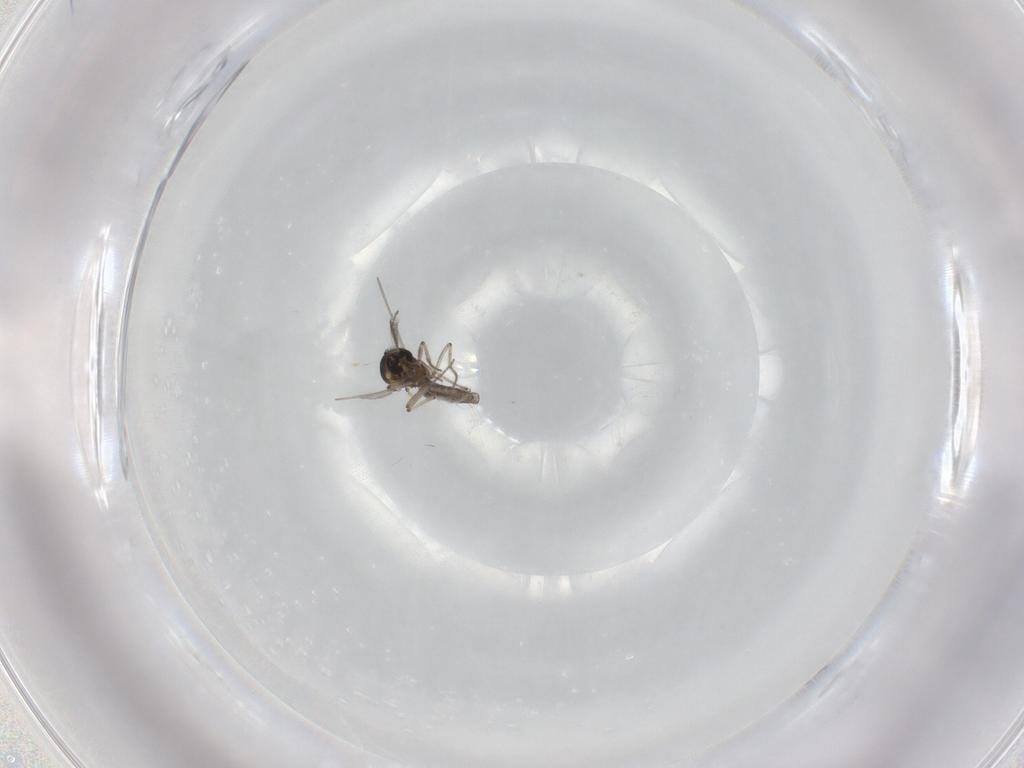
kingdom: Animalia
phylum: Arthropoda
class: Insecta
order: Diptera
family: Ceratopogonidae
